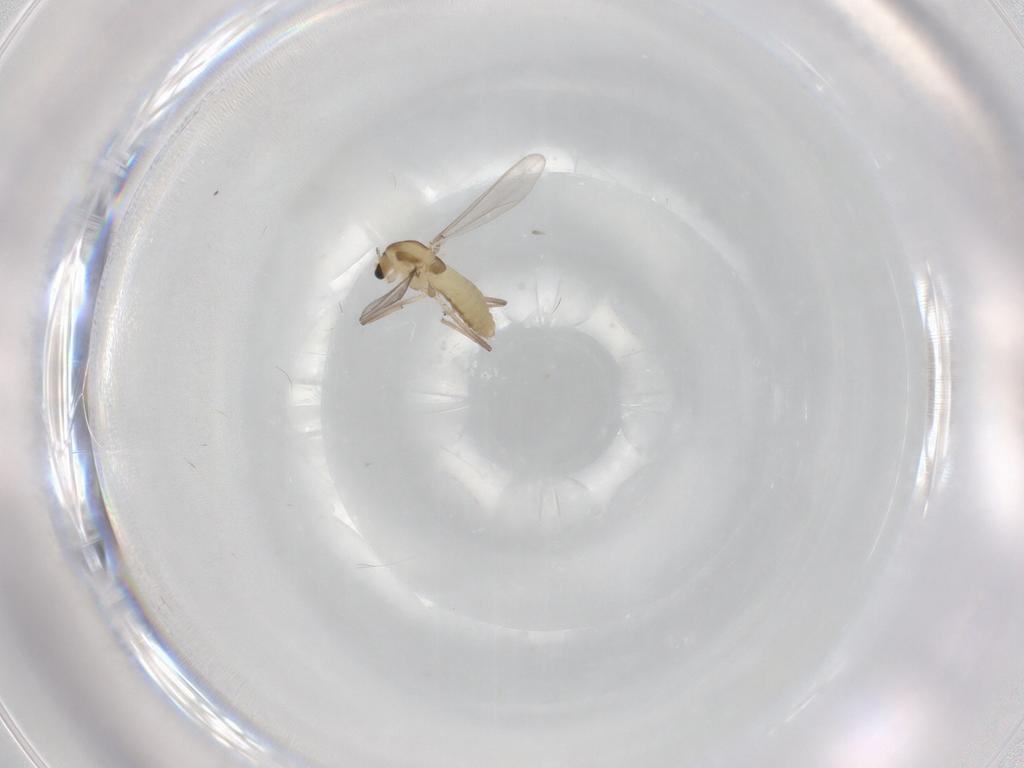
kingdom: Animalia
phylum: Arthropoda
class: Insecta
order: Diptera
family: Chironomidae
